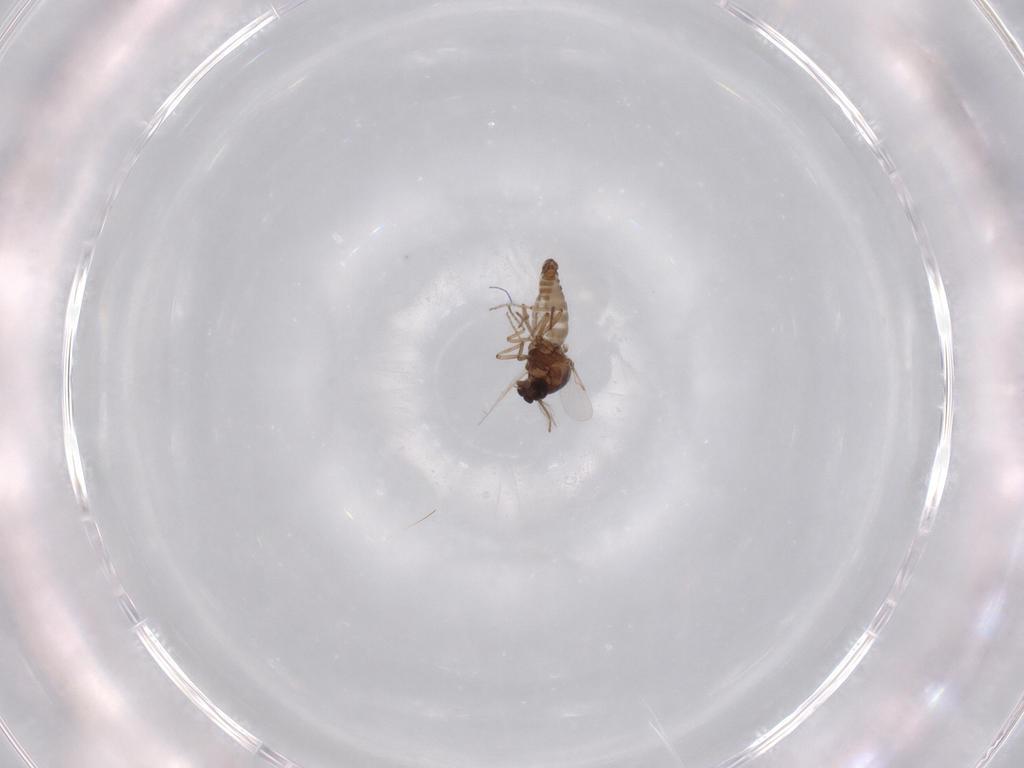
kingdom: Animalia
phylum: Arthropoda
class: Insecta
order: Diptera
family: Ceratopogonidae
